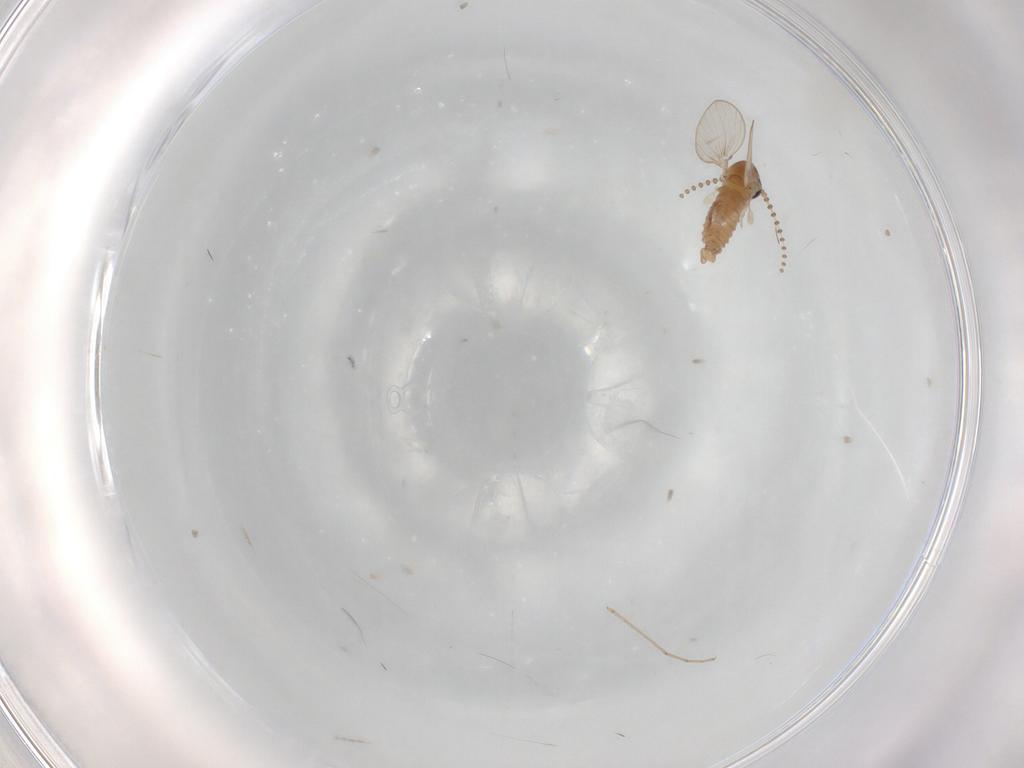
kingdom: Animalia
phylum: Arthropoda
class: Insecta
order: Diptera
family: Psychodidae
